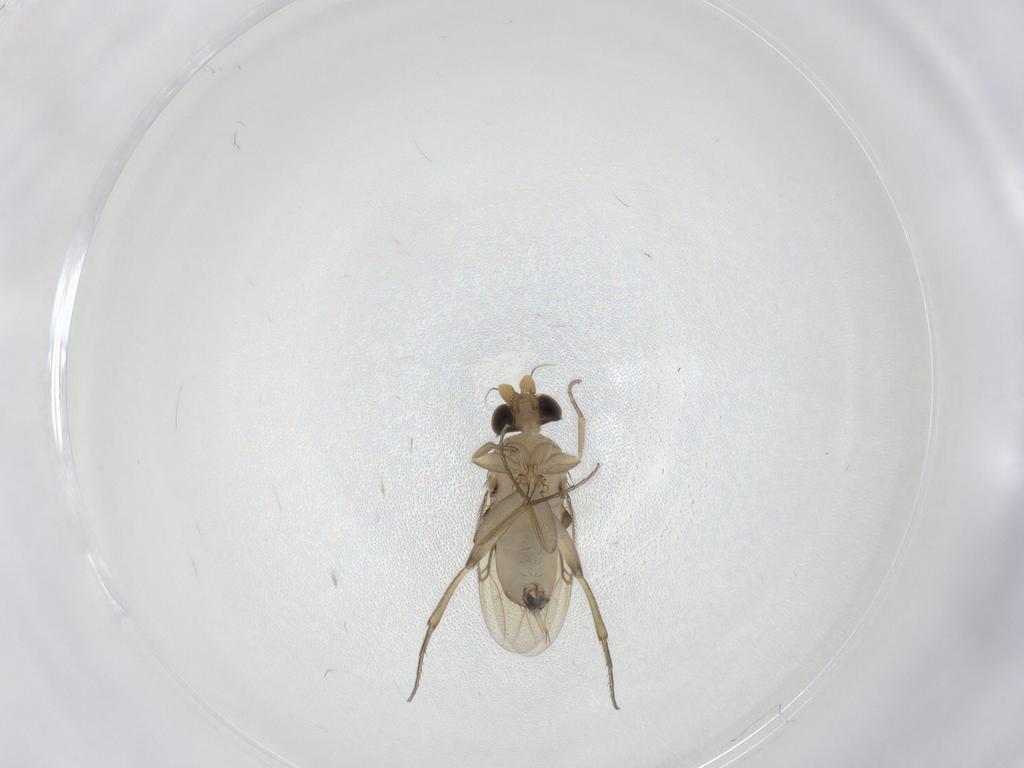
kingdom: Animalia
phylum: Arthropoda
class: Insecta
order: Diptera
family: Phoridae
